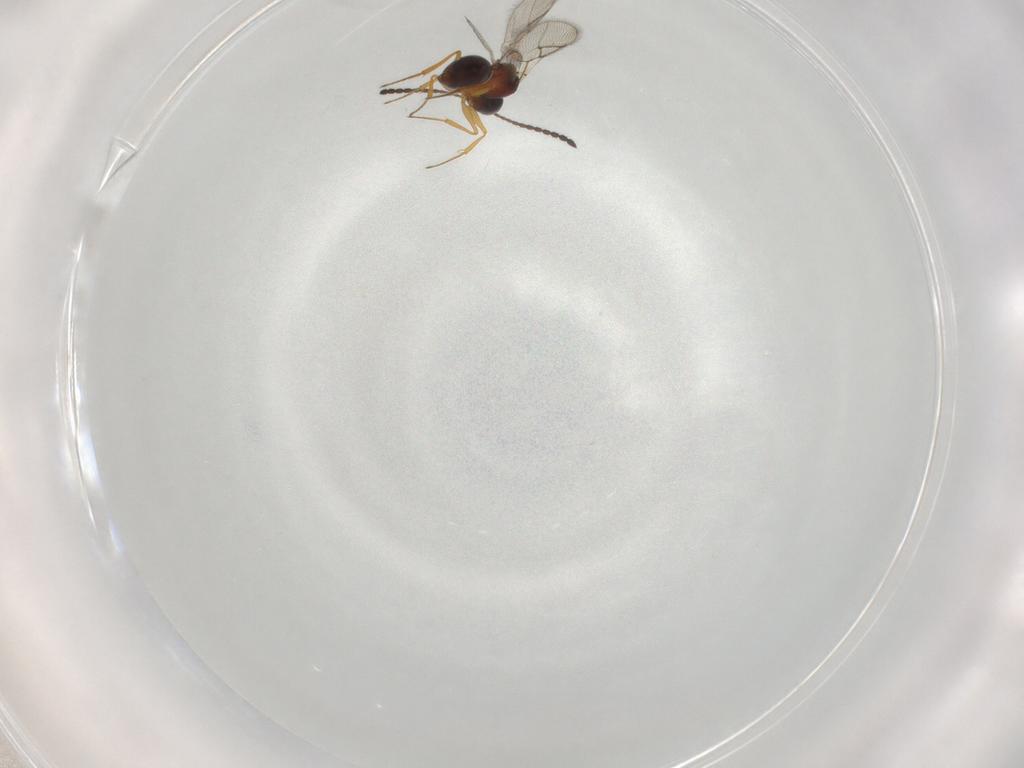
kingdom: Animalia
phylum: Arthropoda
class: Insecta
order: Hymenoptera
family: Figitidae
